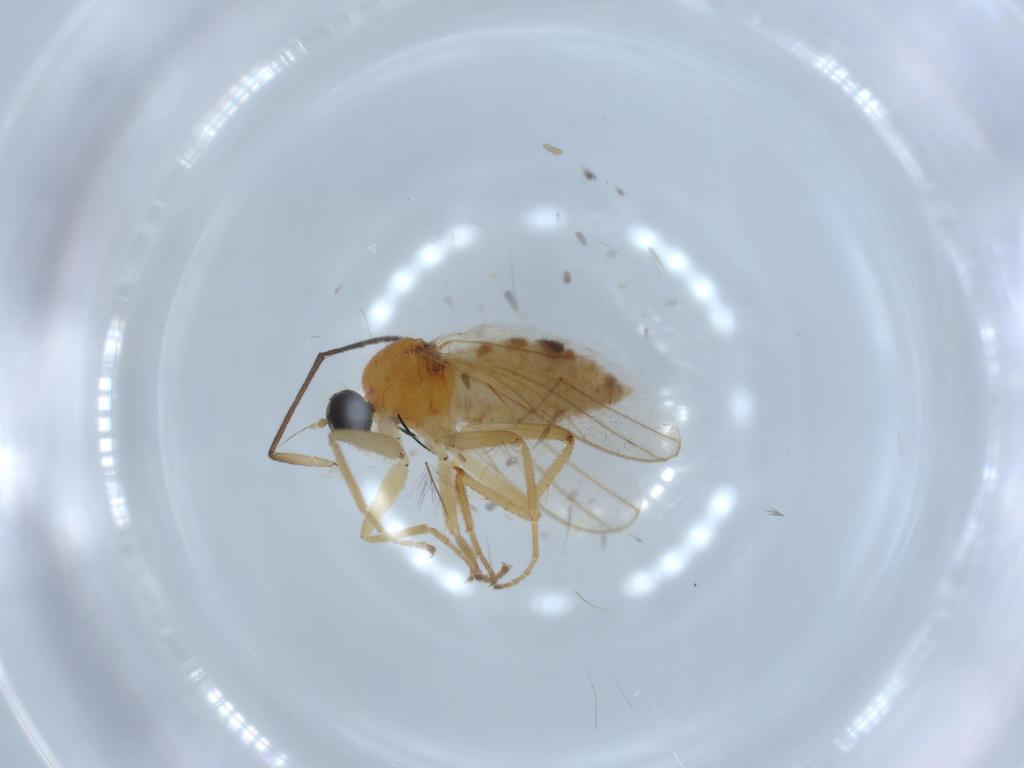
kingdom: Animalia
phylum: Arthropoda
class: Insecta
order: Diptera
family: Hybotidae
